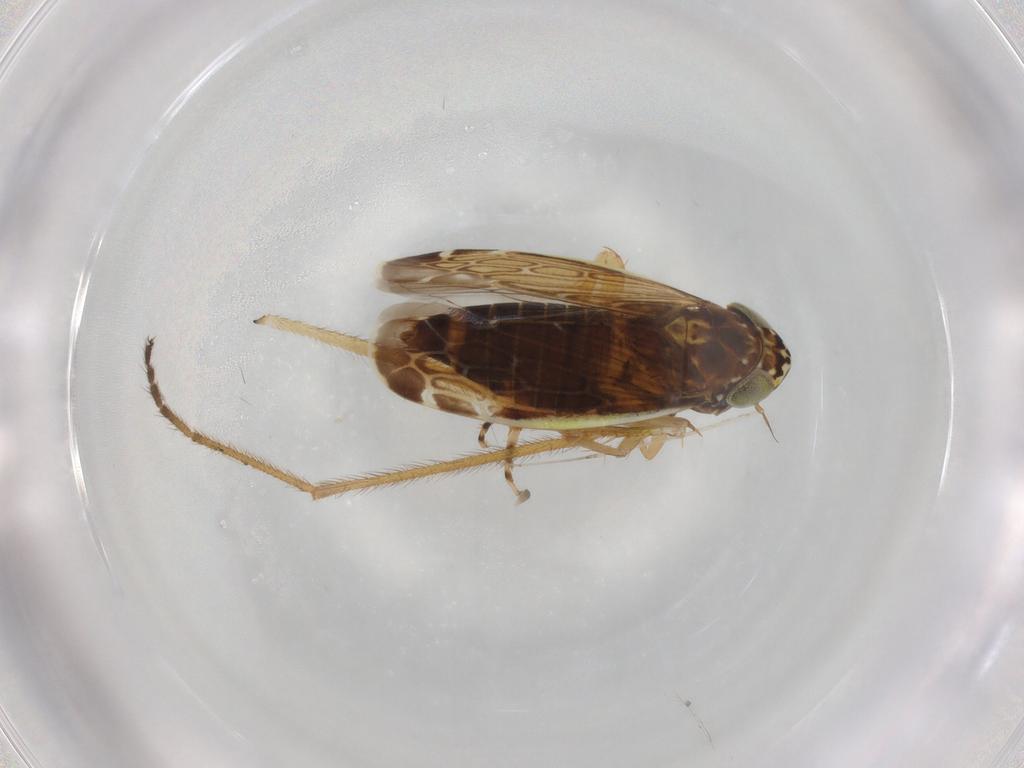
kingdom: Animalia
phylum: Arthropoda
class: Insecta
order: Hemiptera
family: Cicadellidae
